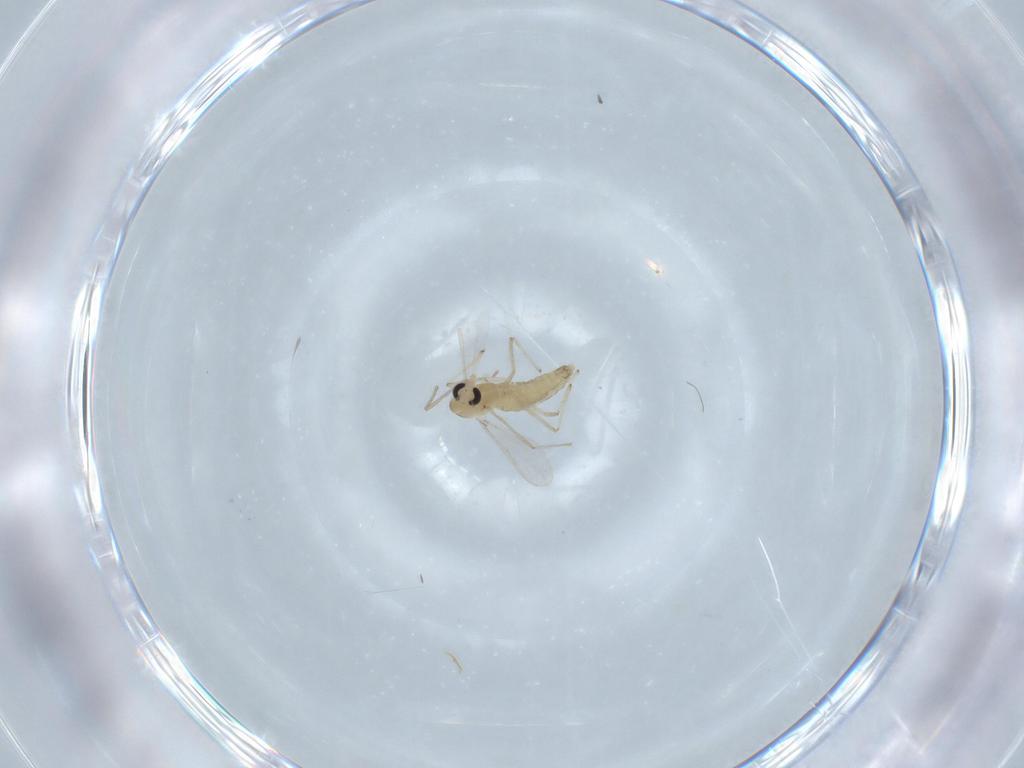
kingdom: Animalia
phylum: Arthropoda
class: Insecta
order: Diptera
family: Chironomidae
